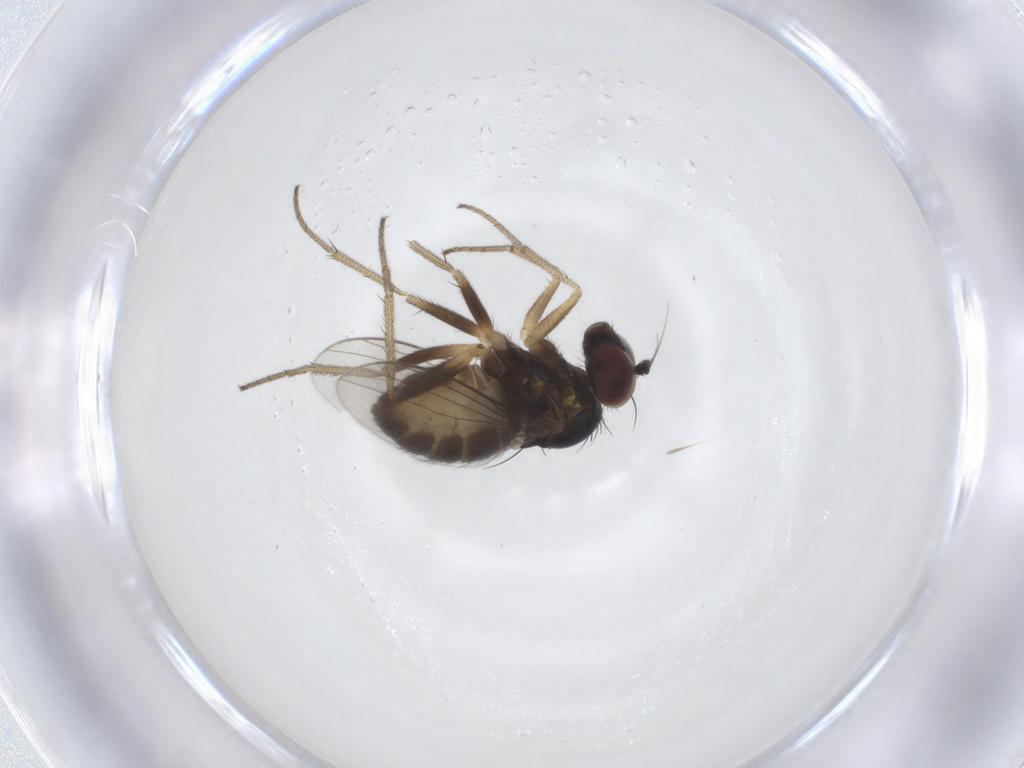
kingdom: Animalia
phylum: Arthropoda
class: Insecta
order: Diptera
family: Dolichopodidae
